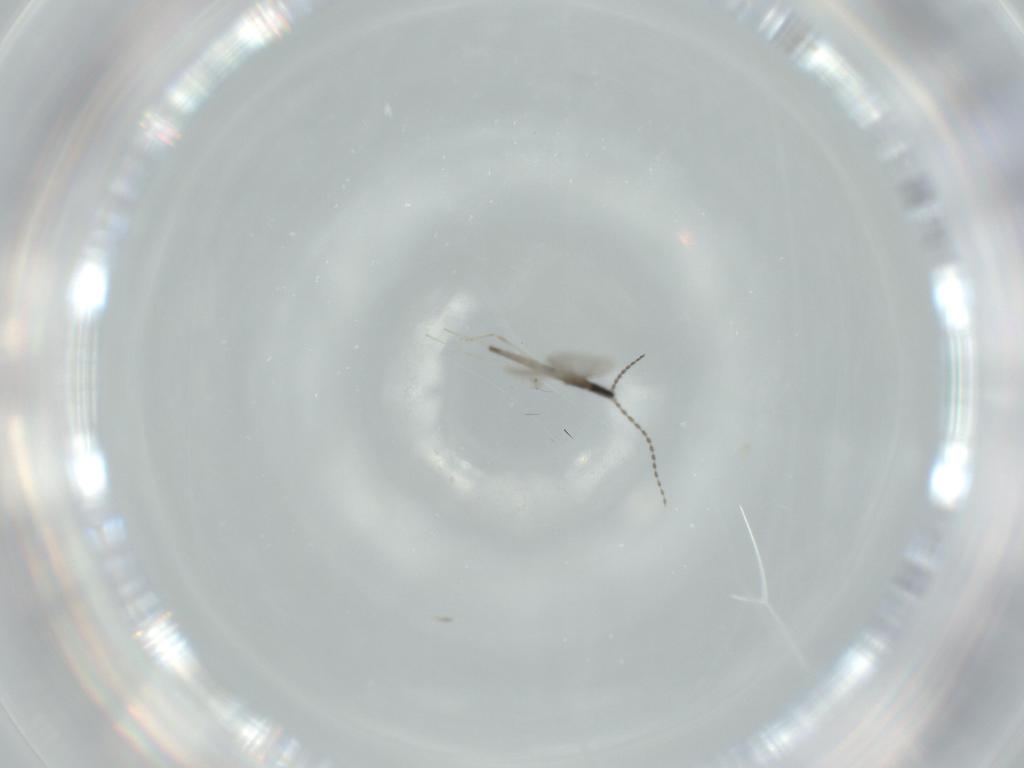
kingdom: Animalia
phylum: Arthropoda
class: Insecta
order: Diptera
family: Cecidomyiidae
